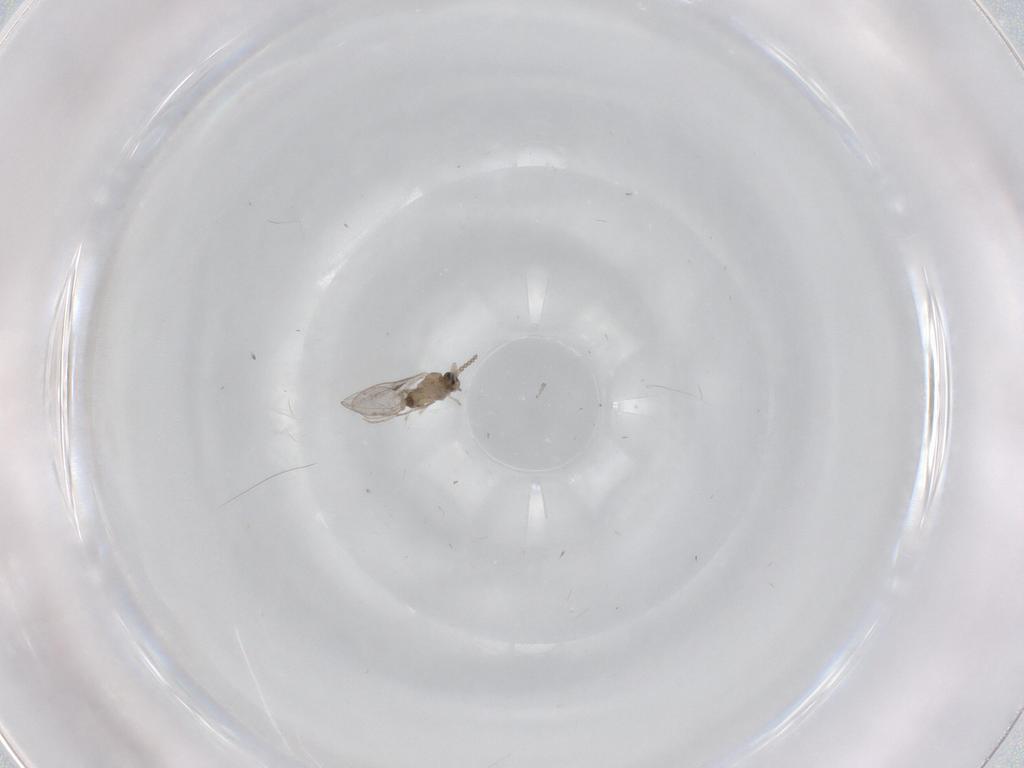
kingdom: Animalia
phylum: Arthropoda
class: Insecta
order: Diptera
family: Cecidomyiidae
